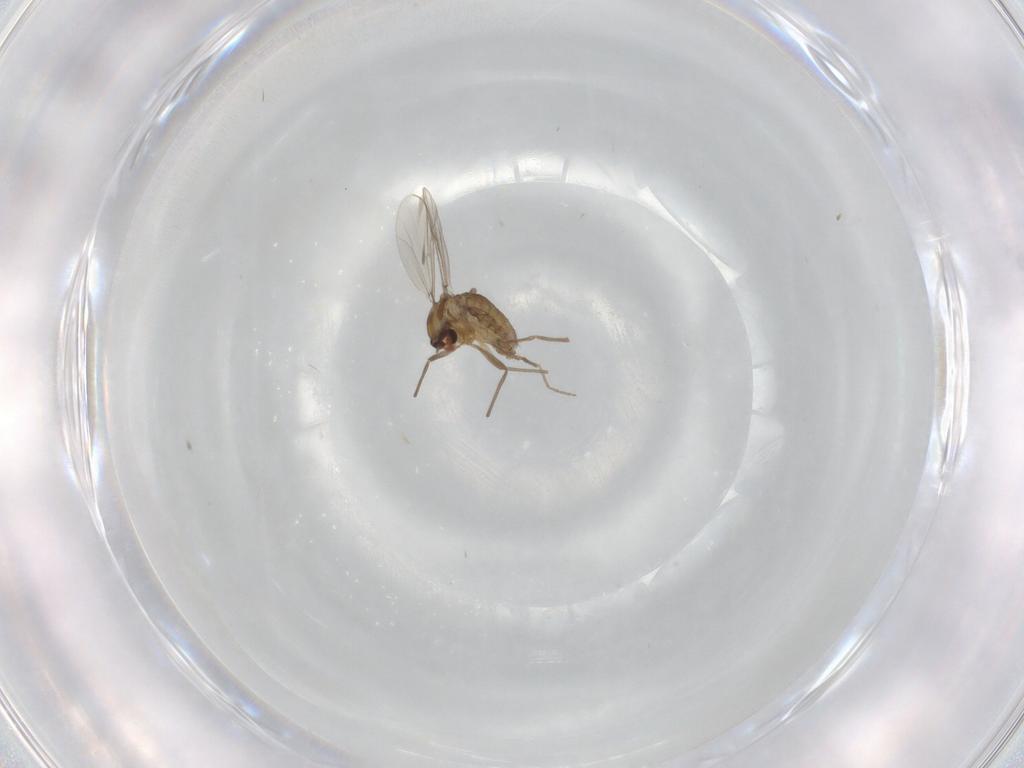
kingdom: Animalia
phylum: Arthropoda
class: Insecta
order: Diptera
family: Chironomidae
